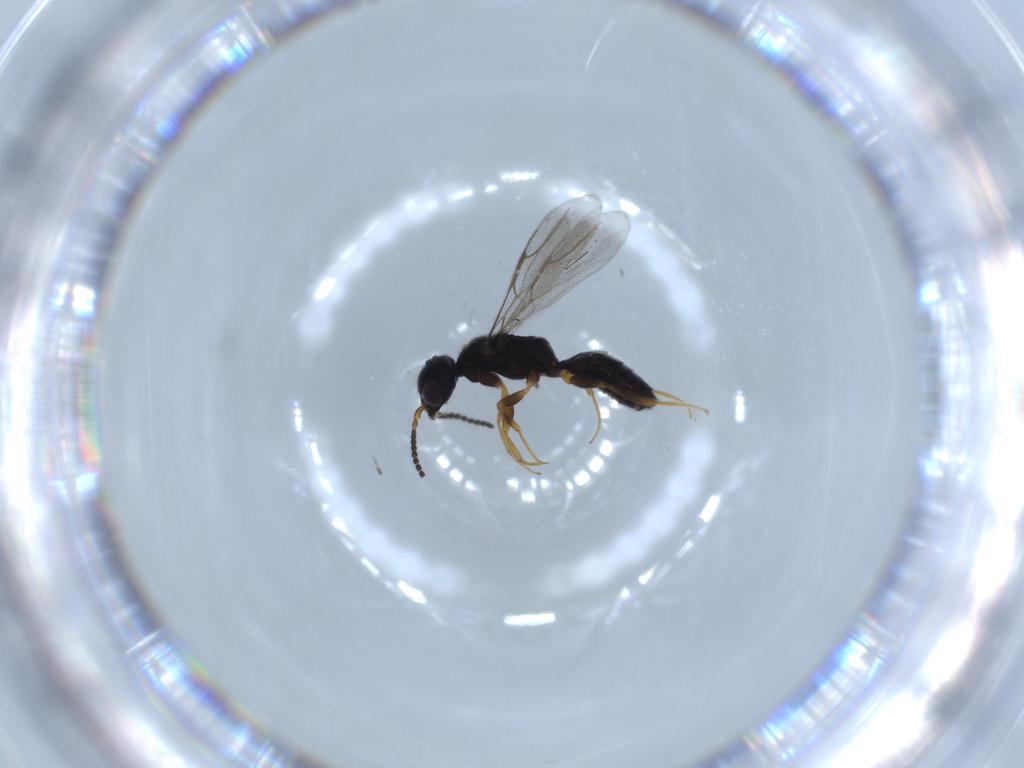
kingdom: Animalia
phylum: Arthropoda
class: Insecta
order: Hymenoptera
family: Bethylidae
